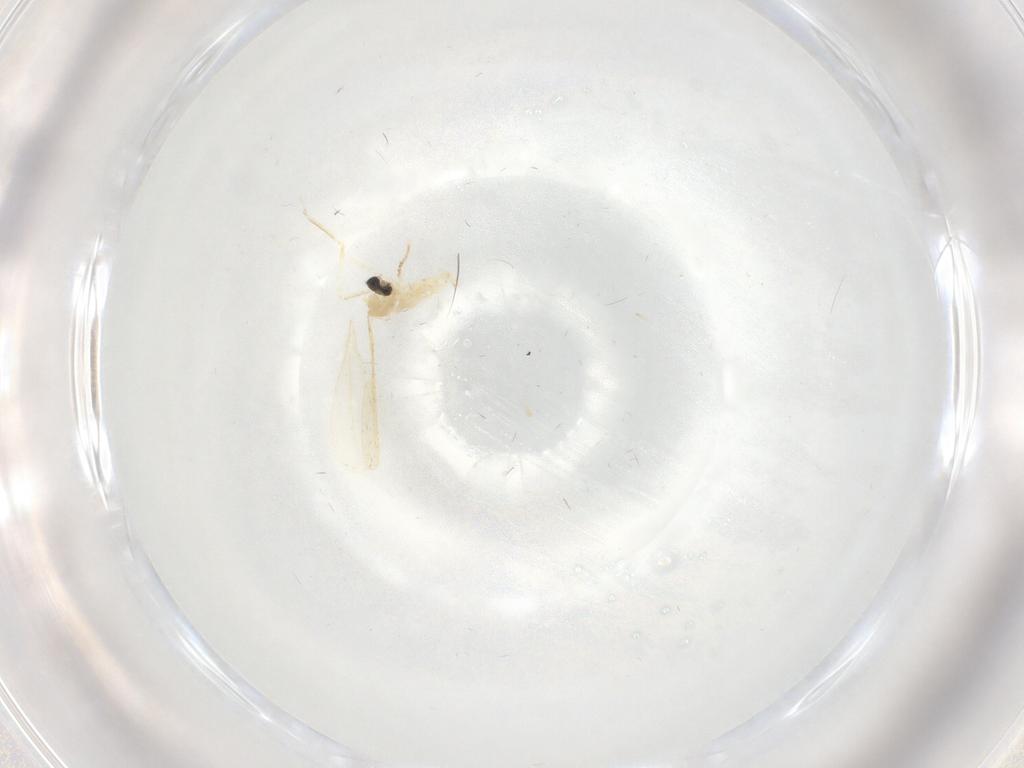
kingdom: Animalia
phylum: Arthropoda
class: Insecta
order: Diptera
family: Cecidomyiidae
